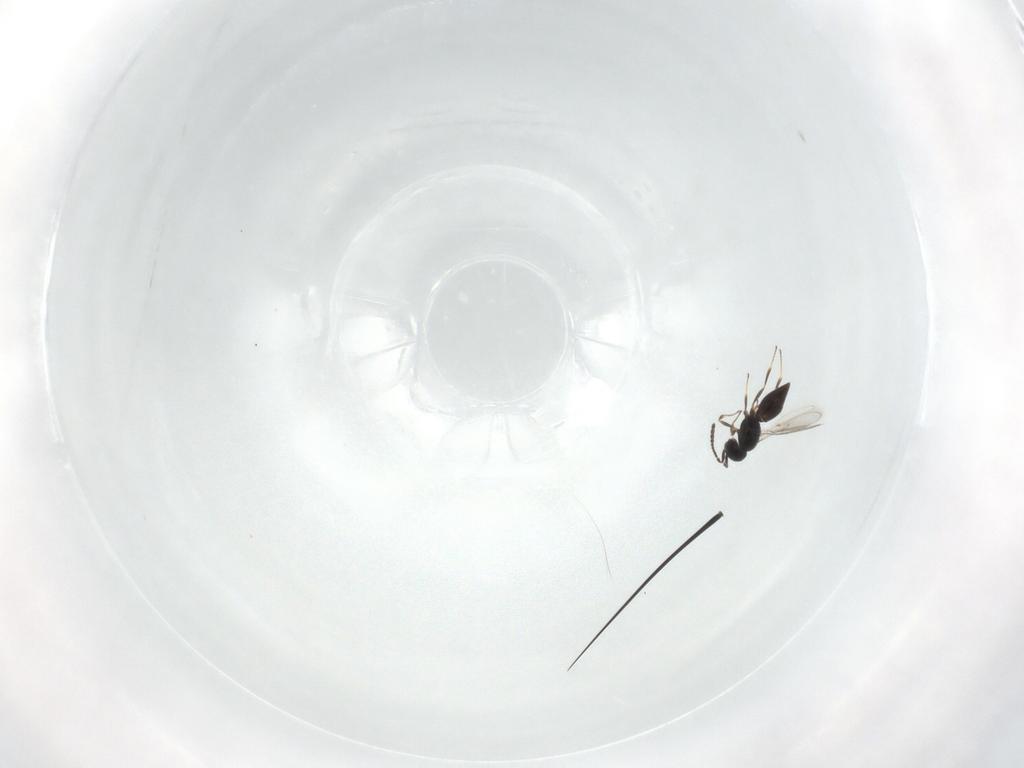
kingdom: Animalia
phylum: Arthropoda
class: Insecta
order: Hymenoptera
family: Scelionidae
